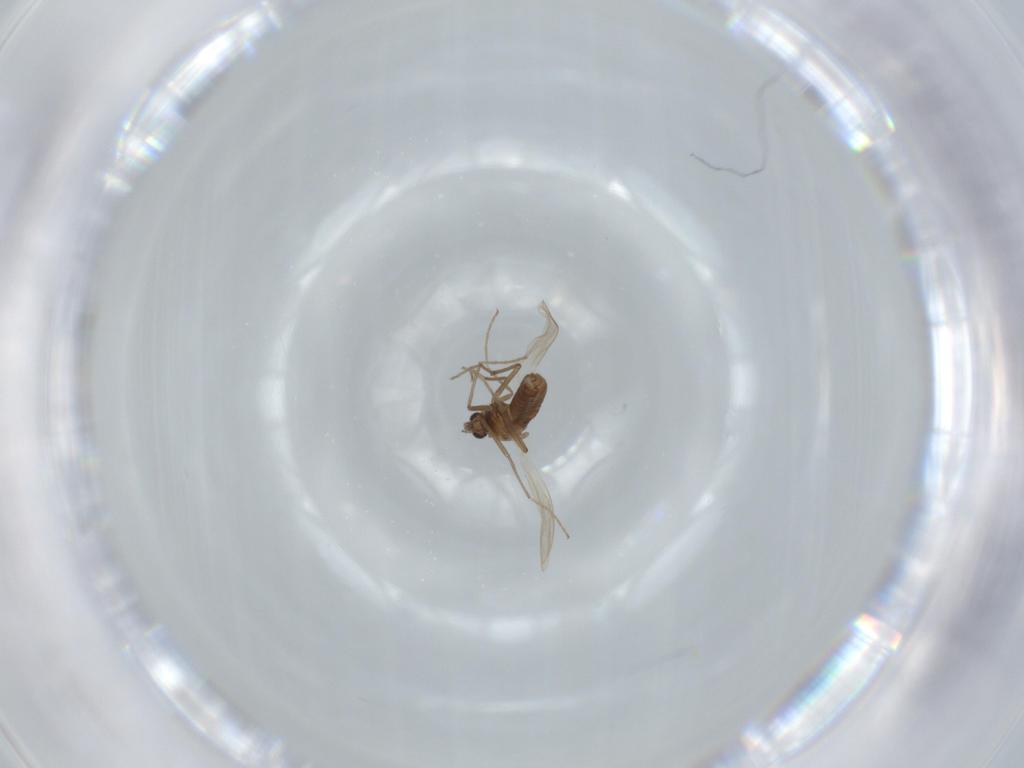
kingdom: Animalia
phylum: Arthropoda
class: Insecta
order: Diptera
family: Chironomidae
